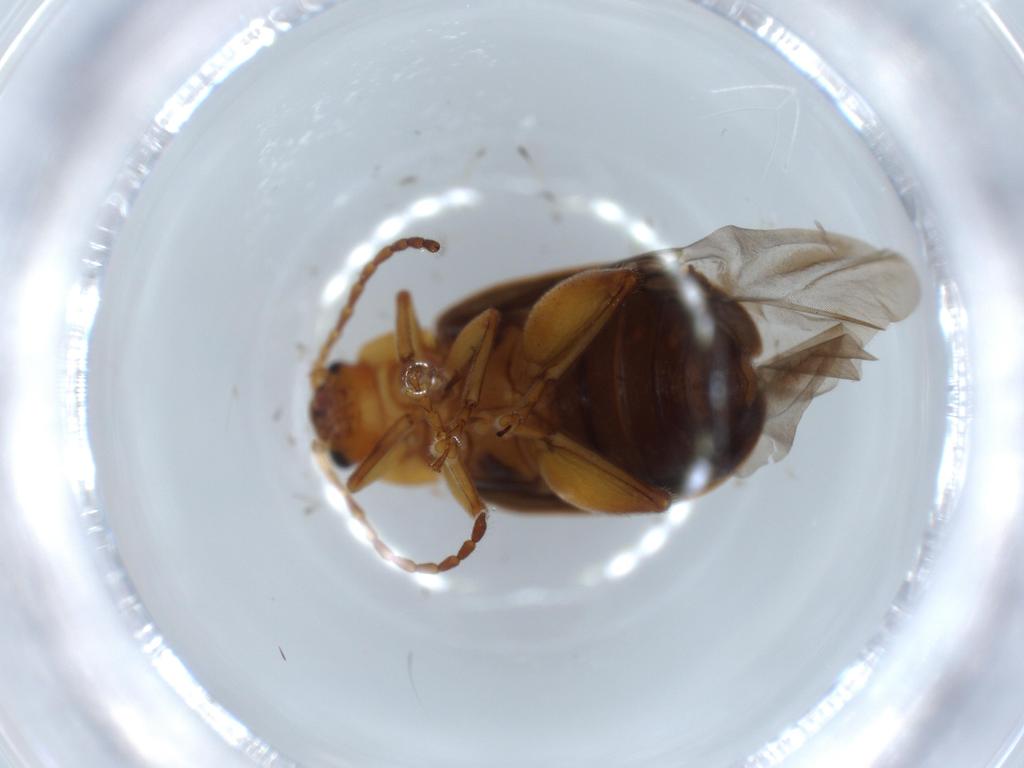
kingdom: Animalia
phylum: Arthropoda
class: Insecta
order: Coleoptera
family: Chrysomelidae
